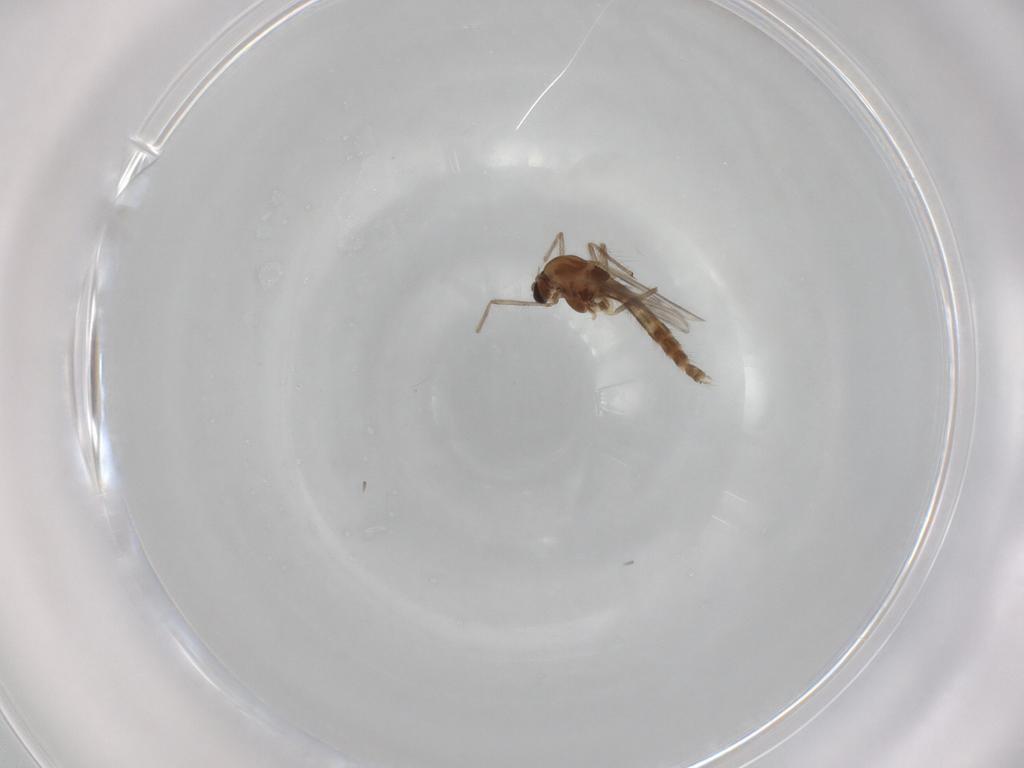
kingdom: Animalia
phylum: Arthropoda
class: Insecta
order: Diptera
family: Chironomidae
